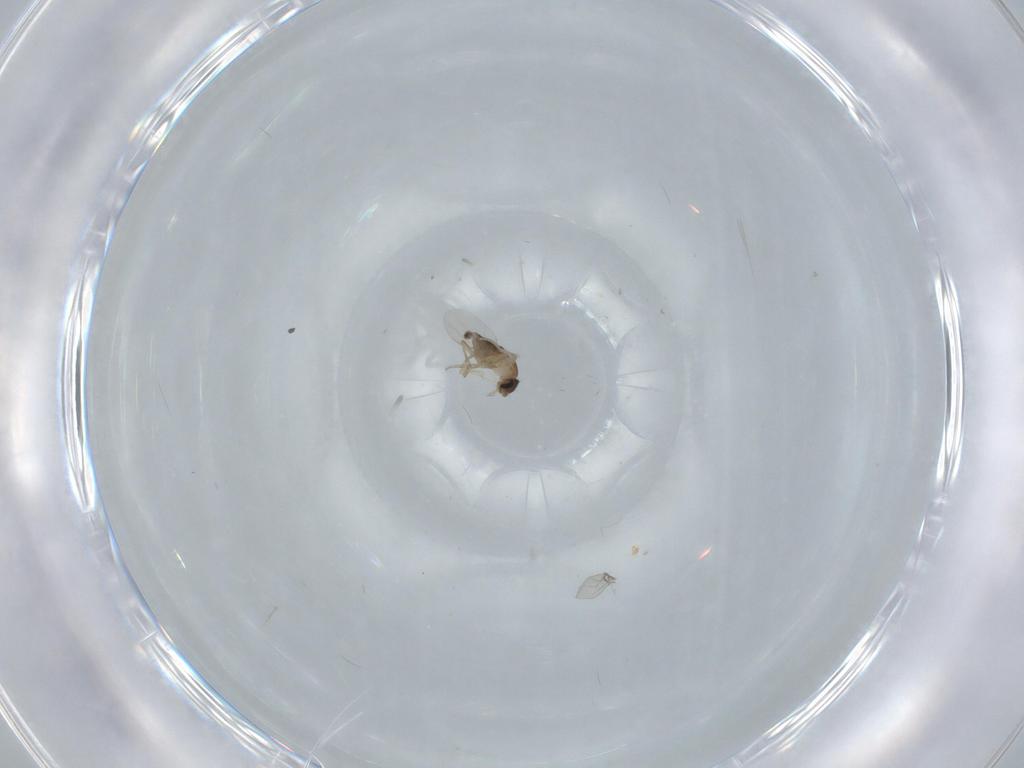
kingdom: Animalia
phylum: Arthropoda
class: Insecta
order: Diptera
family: Phoridae
